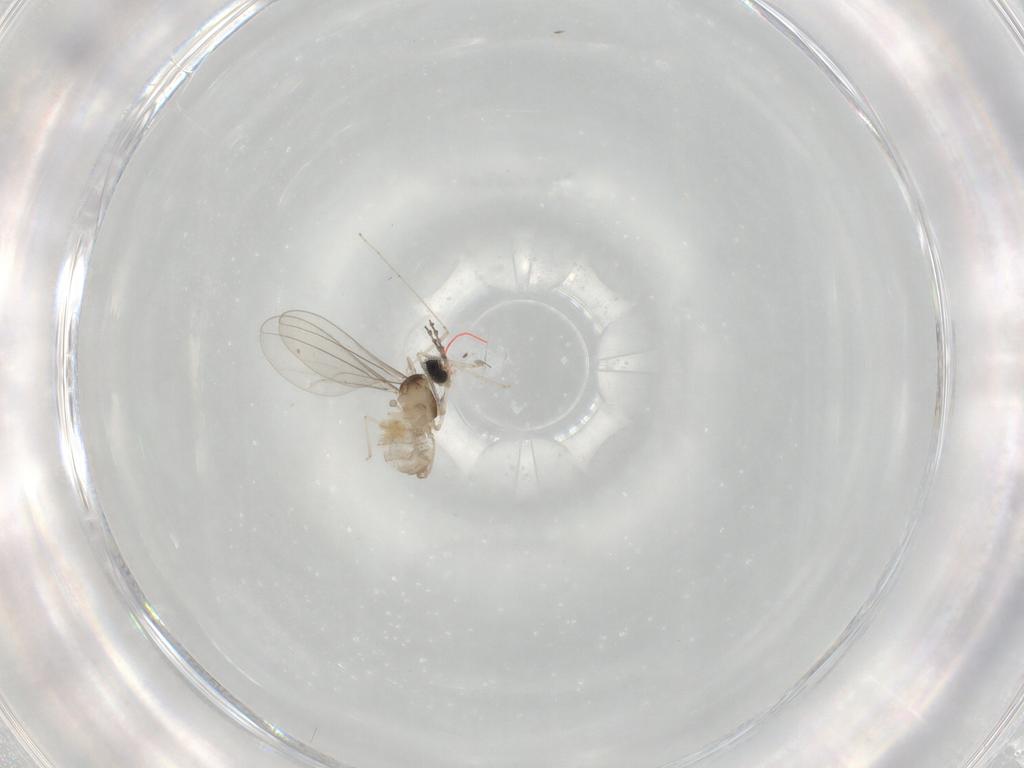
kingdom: Animalia
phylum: Arthropoda
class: Insecta
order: Diptera
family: Cecidomyiidae
